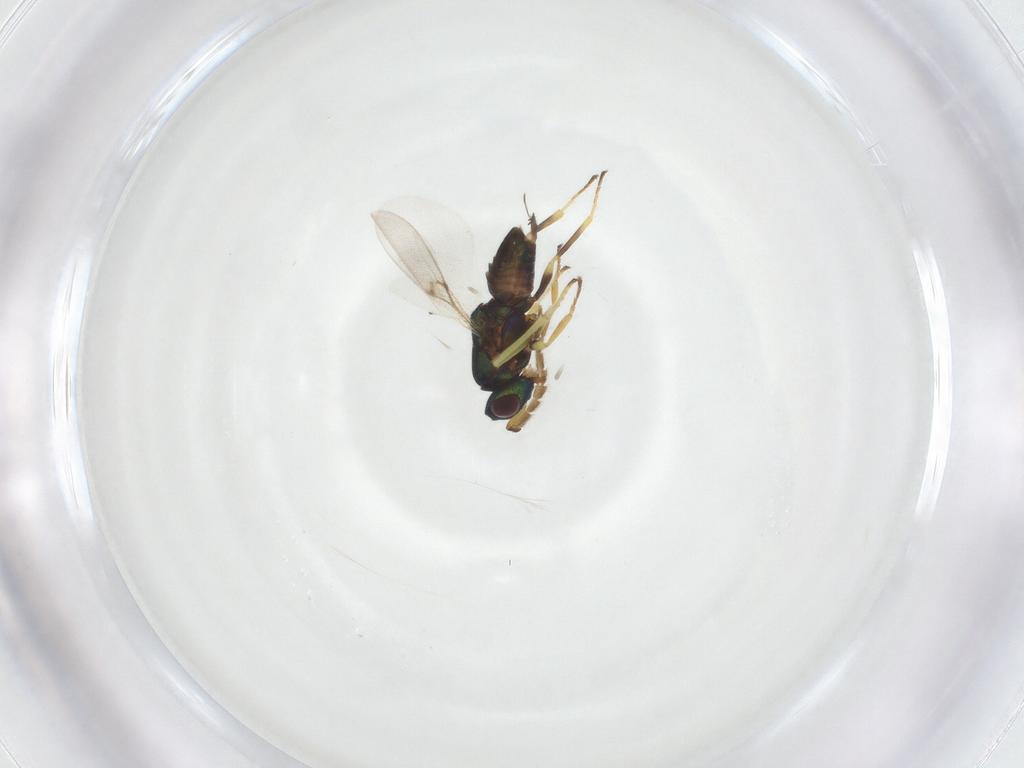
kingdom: Animalia
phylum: Arthropoda
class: Insecta
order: Hymenoptera
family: Encyrtidae
